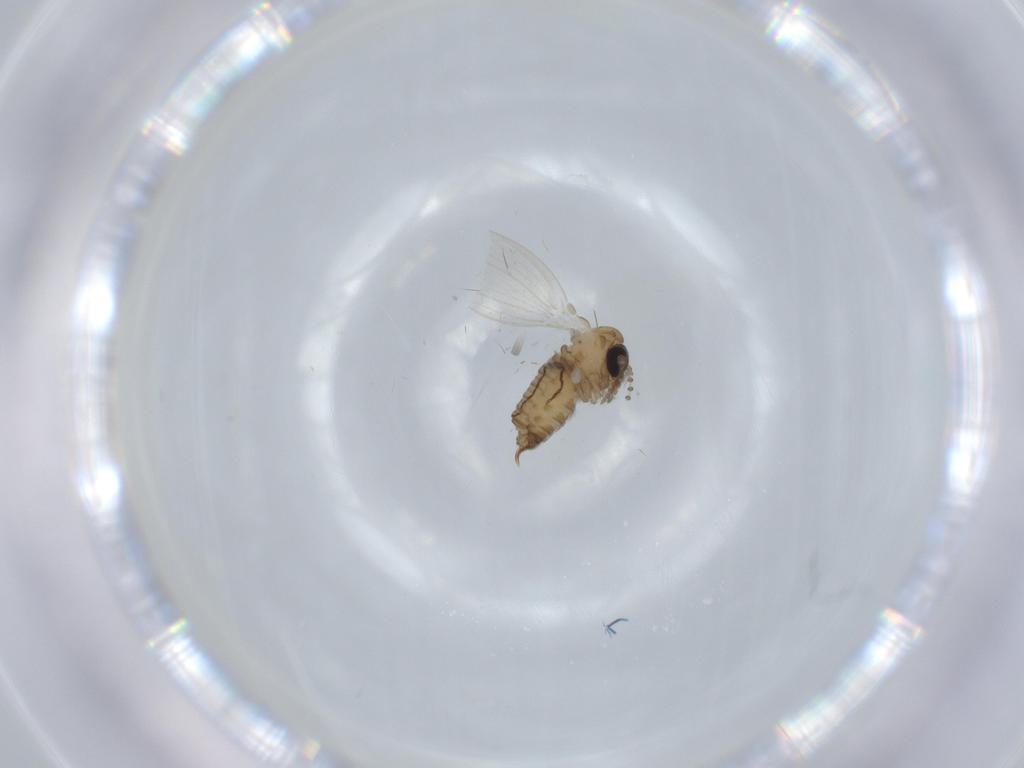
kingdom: Animalia
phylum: Arthropoda
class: Insecta
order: Diptera
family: Psychodidae
